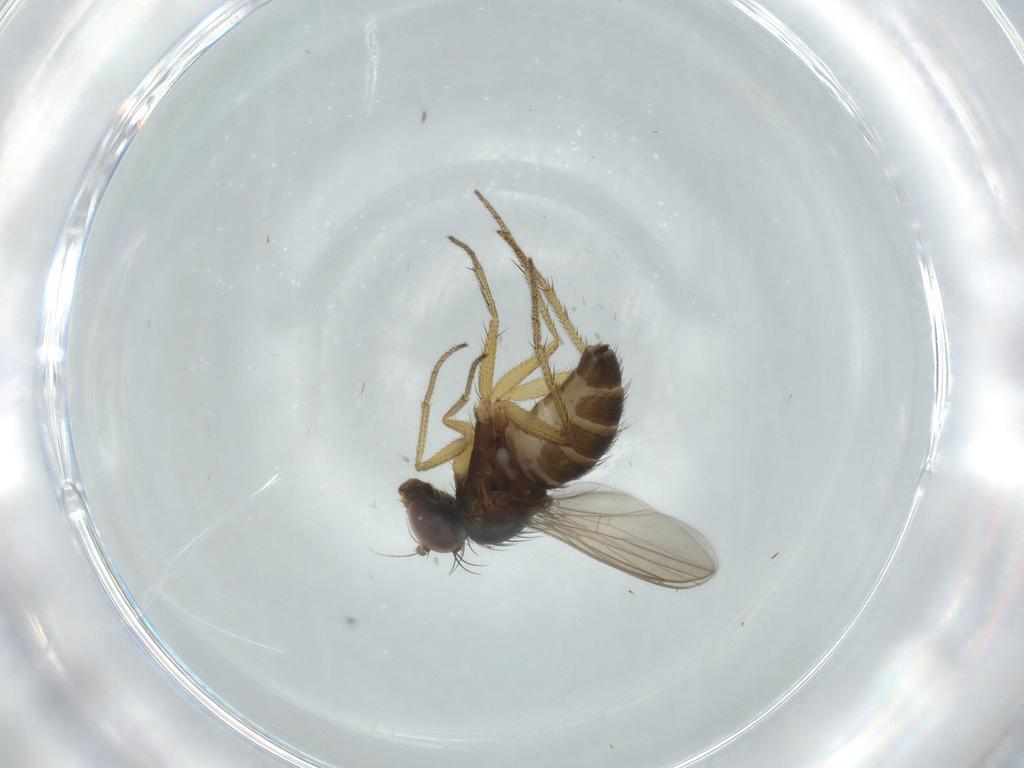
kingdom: Animalia
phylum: Arthropoda
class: Insecta
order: Diptera
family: Dolichopodidae
